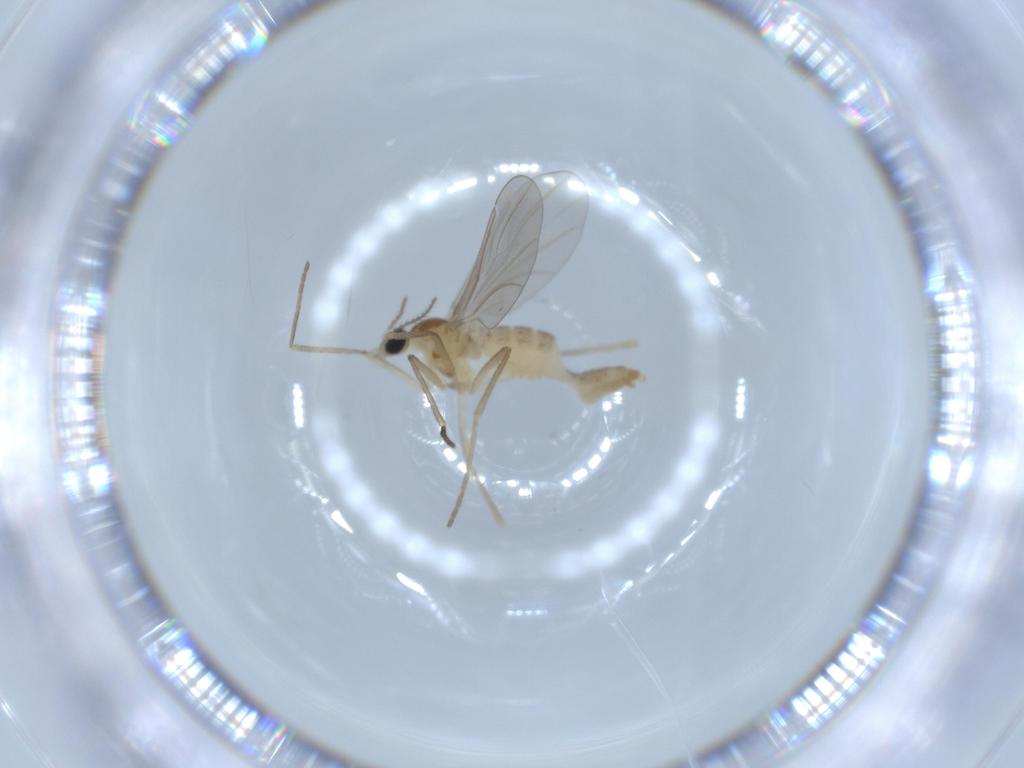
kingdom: Animalia
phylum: Arthropoda
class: Insecta
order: Diptera
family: Cecidomyiidae
